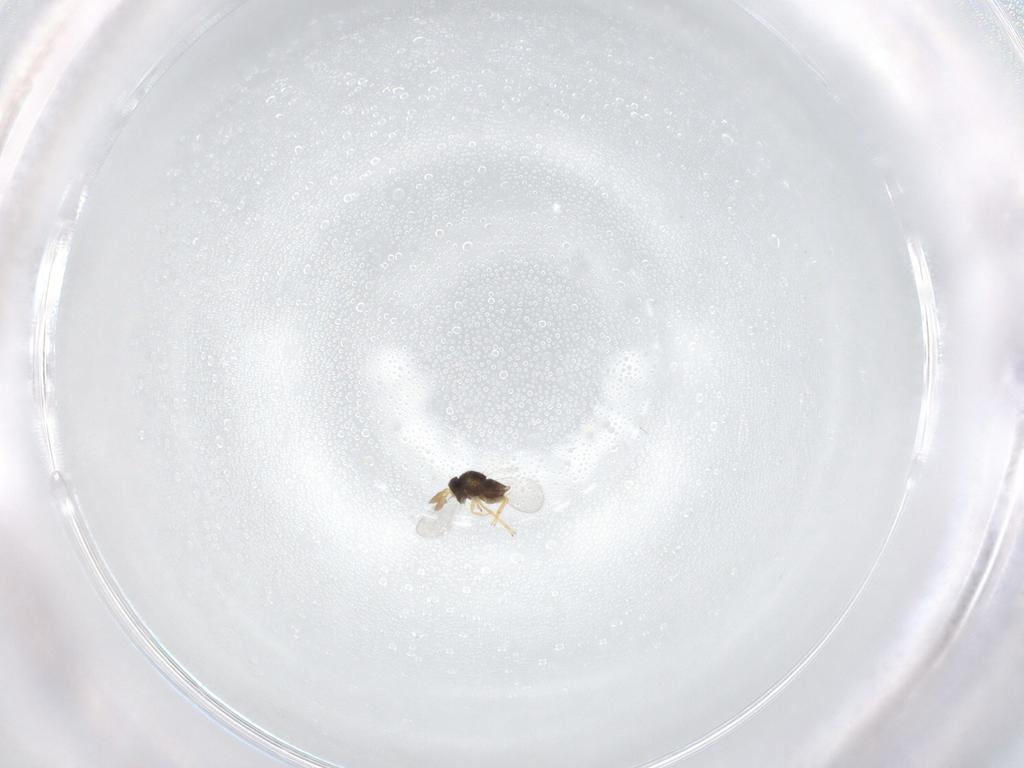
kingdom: Animalia
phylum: Arthropoda
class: Insecta
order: Hymenoptera
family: Encyrtidae
